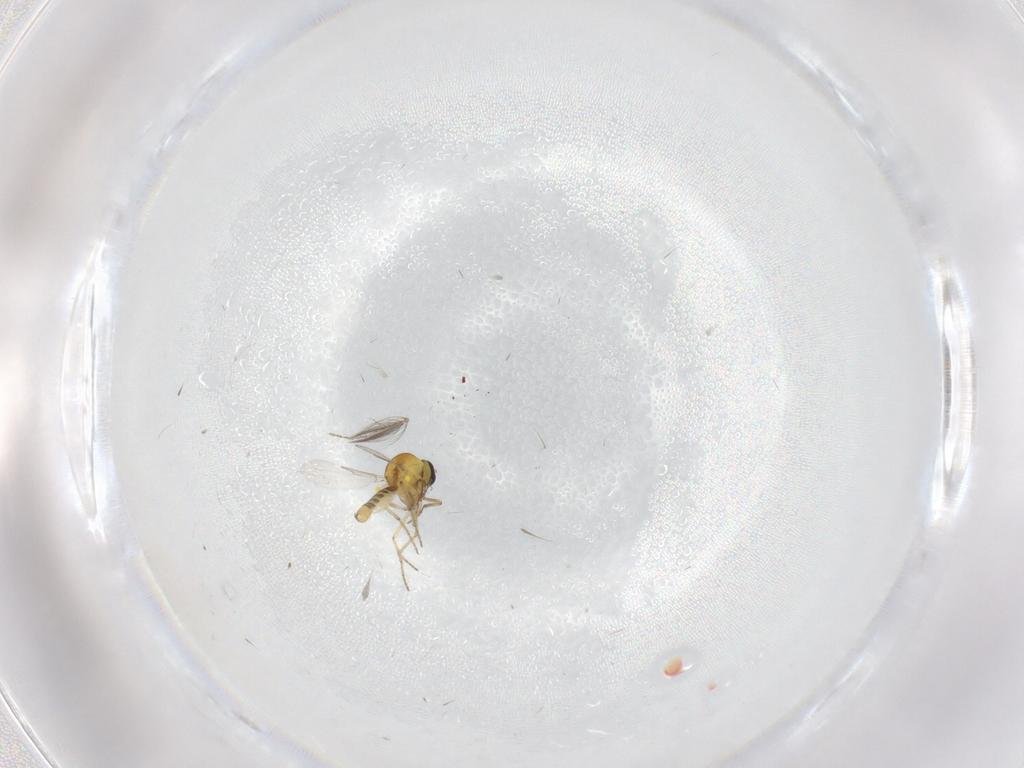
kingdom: Animalia
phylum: Arthropoda
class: Insecta
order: Diptera
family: Ceratopogonidae
